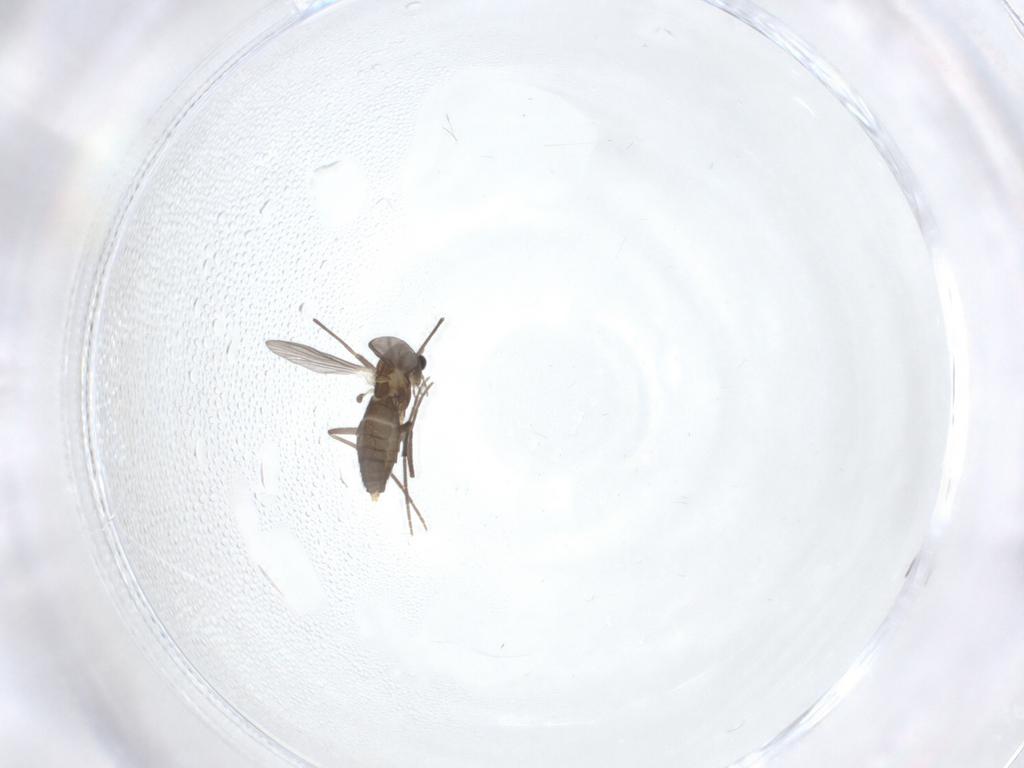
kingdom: Animalia
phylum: Arthropoda
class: Insecta
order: Diptera
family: Chironomidae
